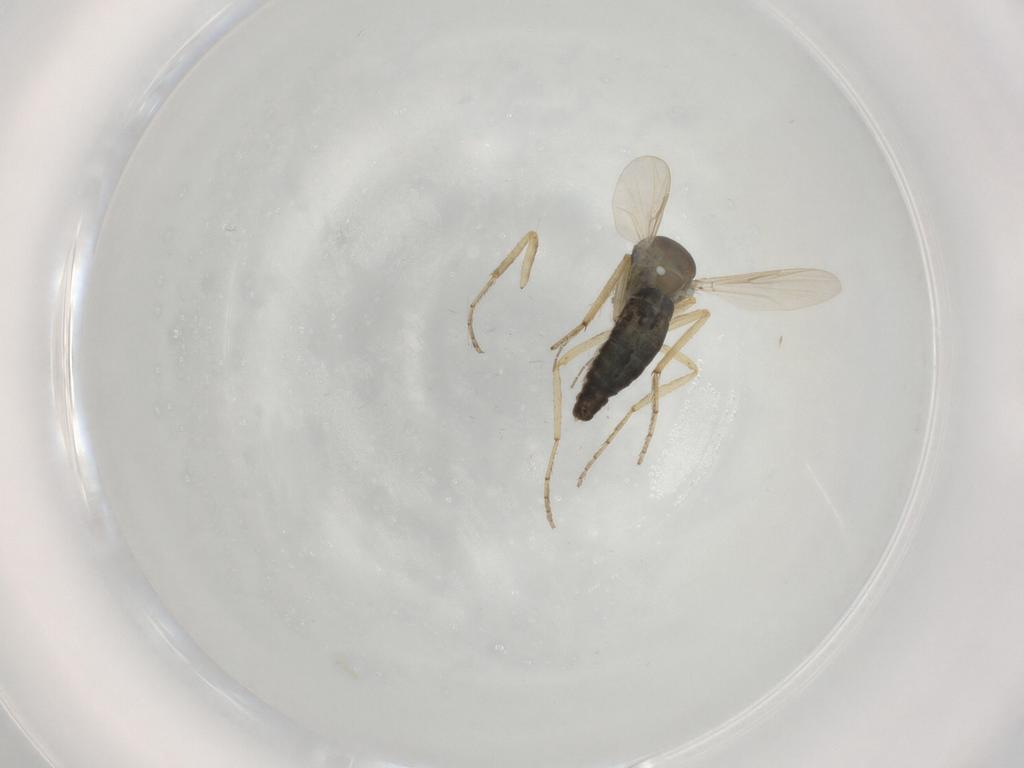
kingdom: Animalia
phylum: Arthropoda
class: Insecta
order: Diptera
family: Ceratopogonidae
